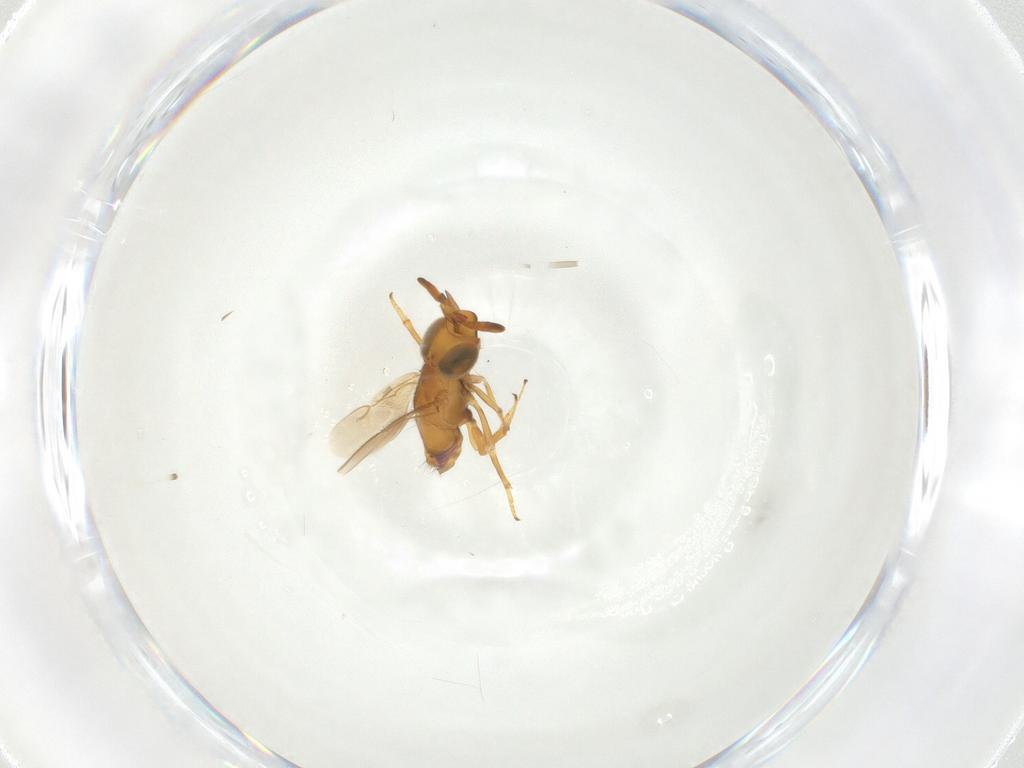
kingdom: Animalia
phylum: Arthropoda
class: Insecta
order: Hymenoptera
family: Encyrtidae
